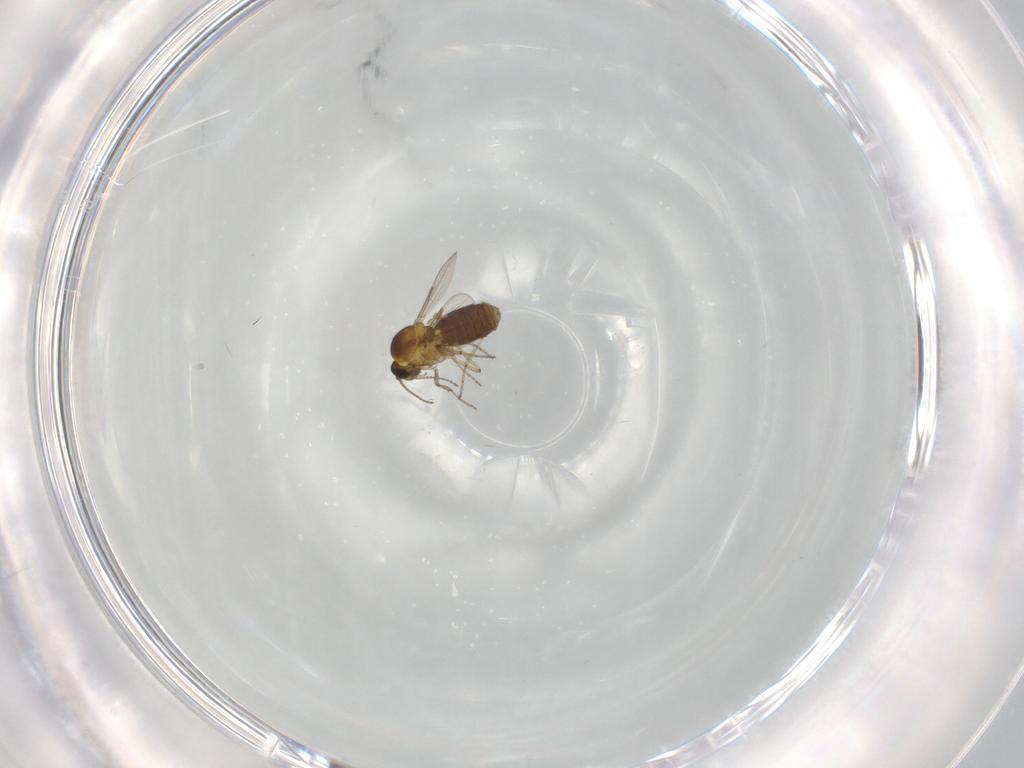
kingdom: Animalia
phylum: Arthropoda
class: Insecta
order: Diptera
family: Ceratopogonidae
